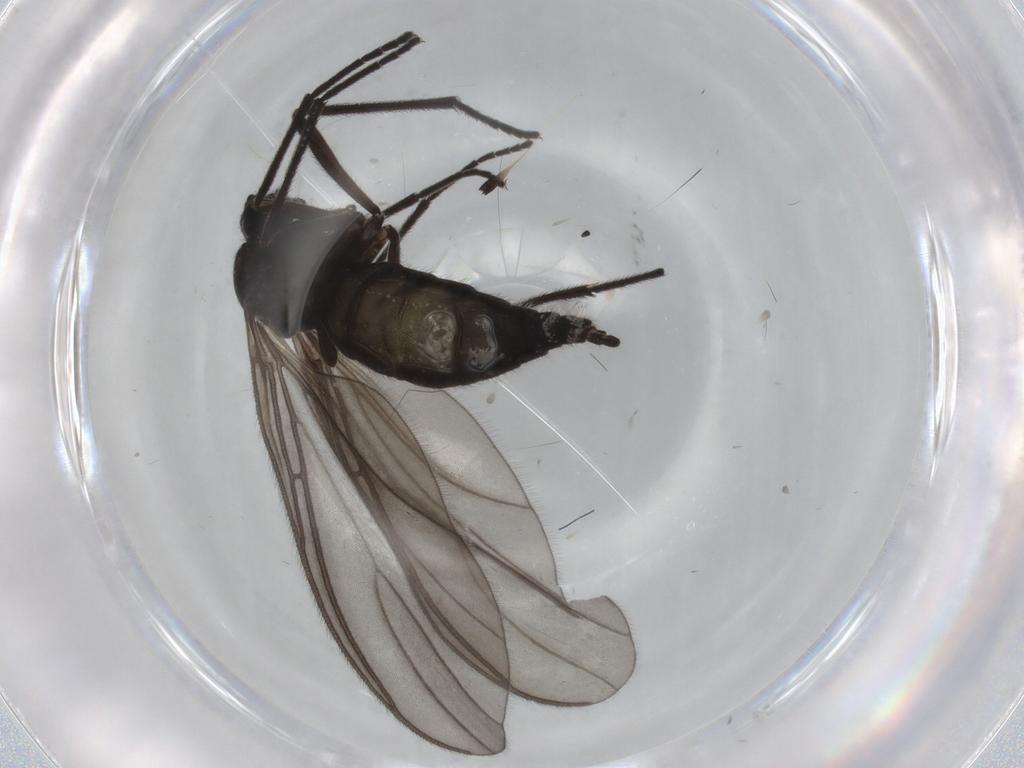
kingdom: Animalia
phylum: Arthropoda
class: Insecta
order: Diptera
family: Sciaridae
